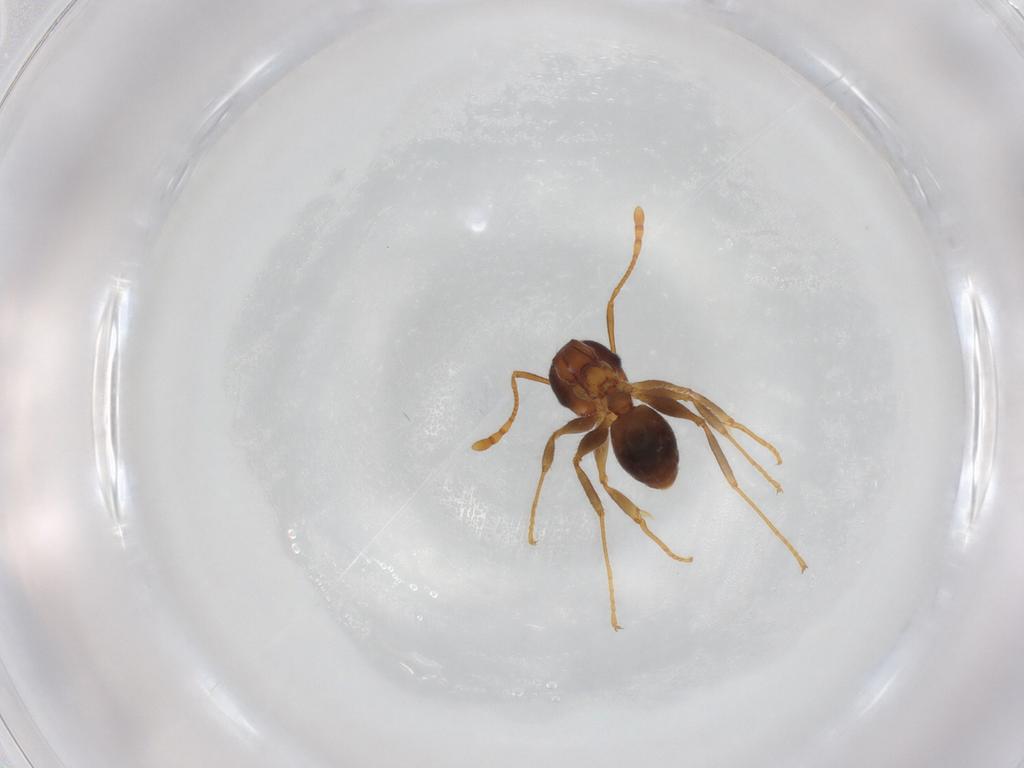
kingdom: Animalia
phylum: Arthropoda
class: Insecta
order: Hymenoptera
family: Formicidae
